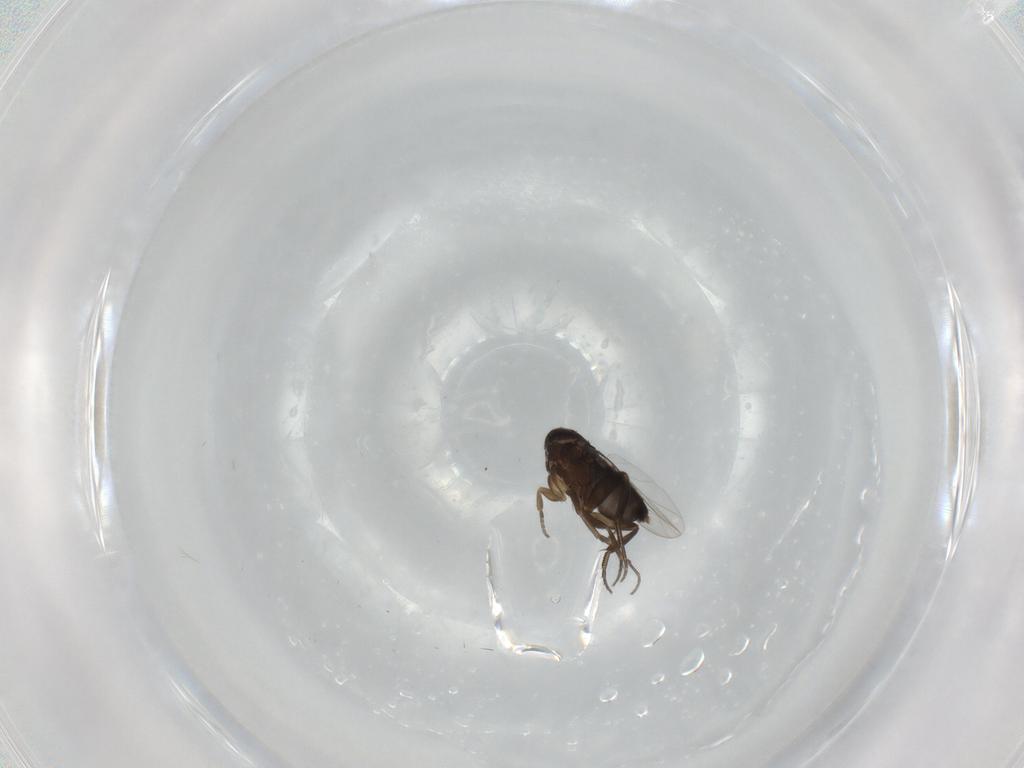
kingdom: Animalia
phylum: Arthropoda
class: Insecta
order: Diptera
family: Phoridae
